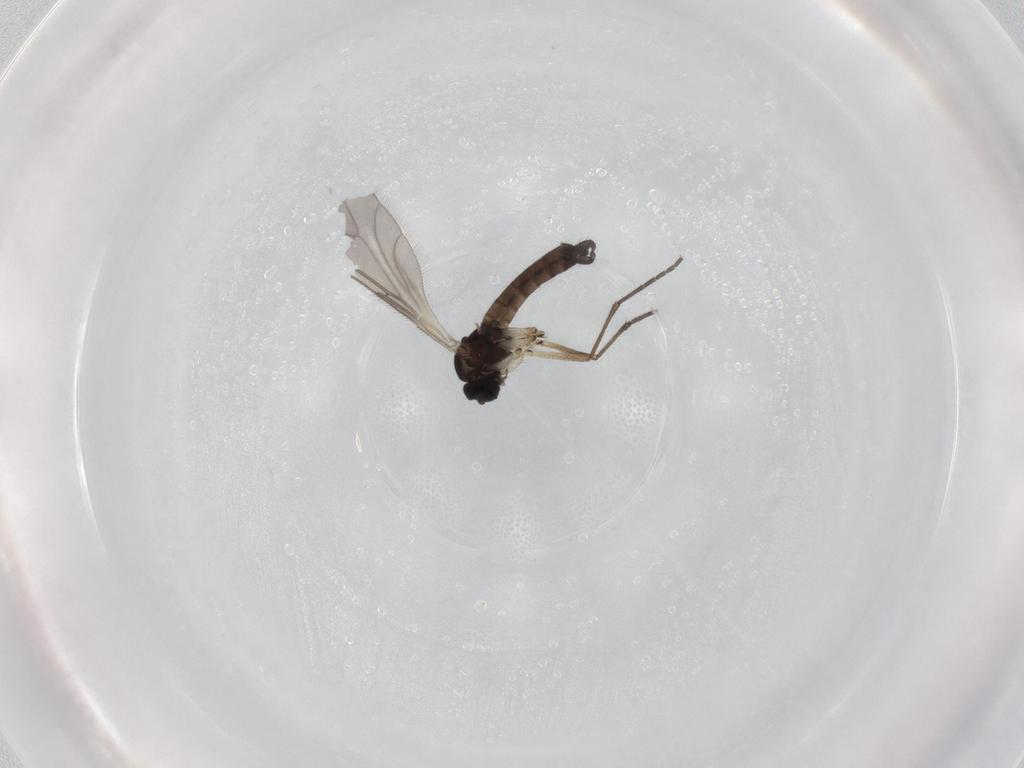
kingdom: Animalia
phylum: Arthropoda
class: Insecta
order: Diptera
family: Sciaridae
